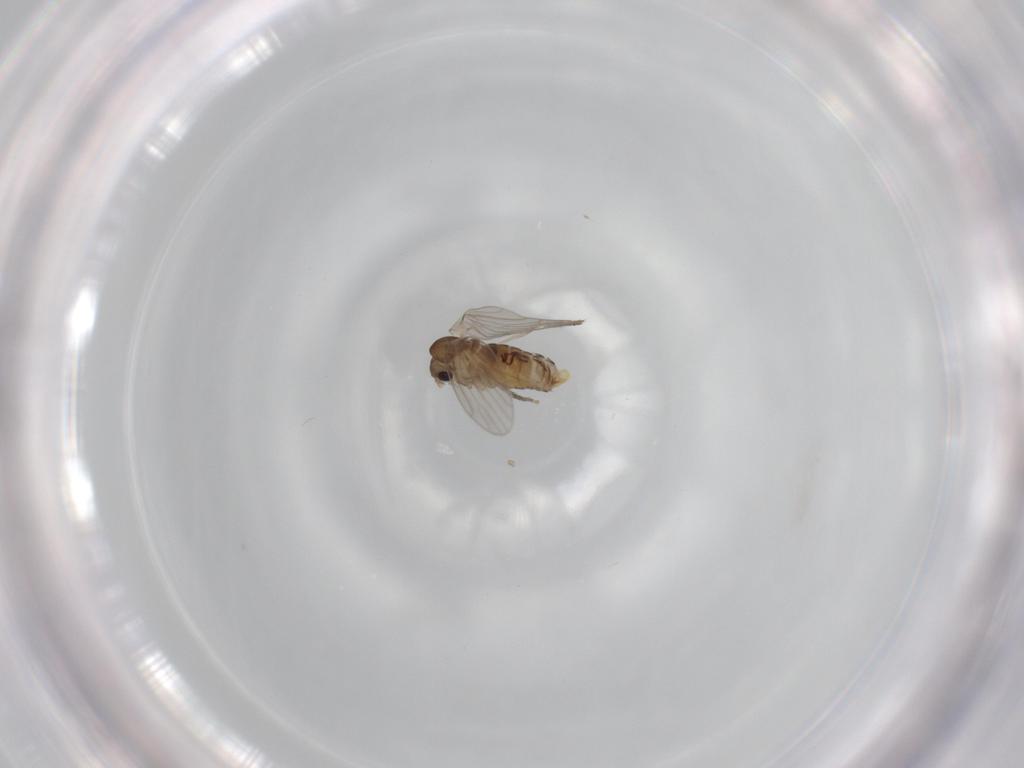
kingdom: Animalia
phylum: Arthropoda
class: Insecta
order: Diptera
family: Psychodidae
